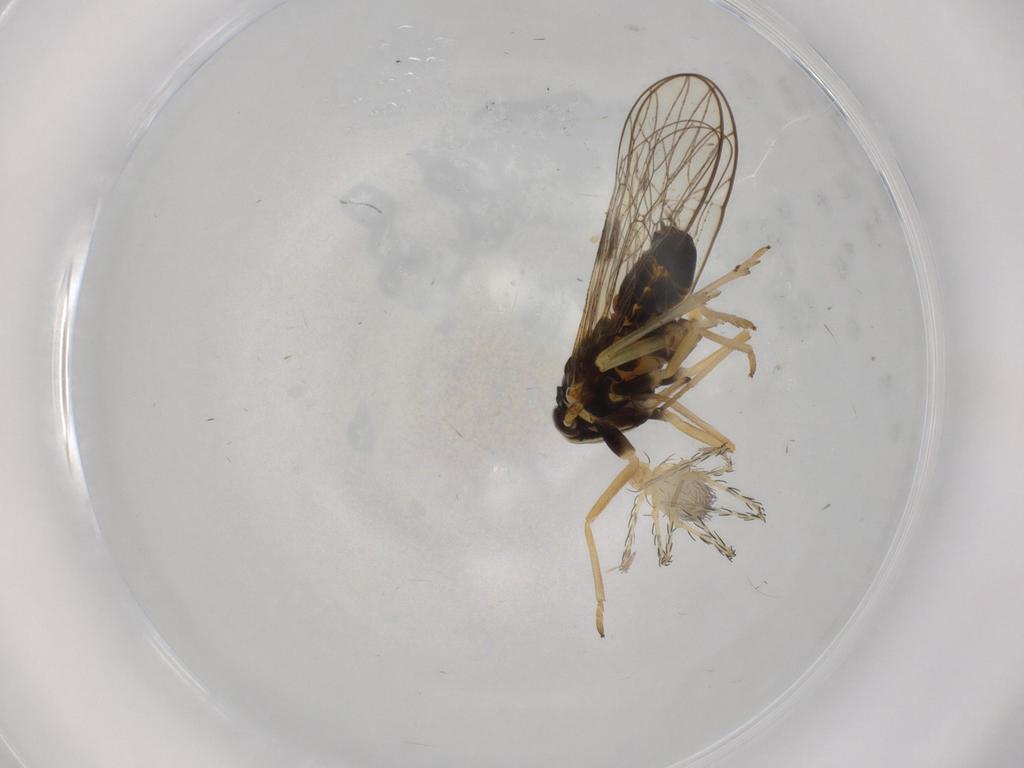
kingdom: Animalia
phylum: Arthropoda
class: Arachnida
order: Trombidiformes
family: Erythraeidae
